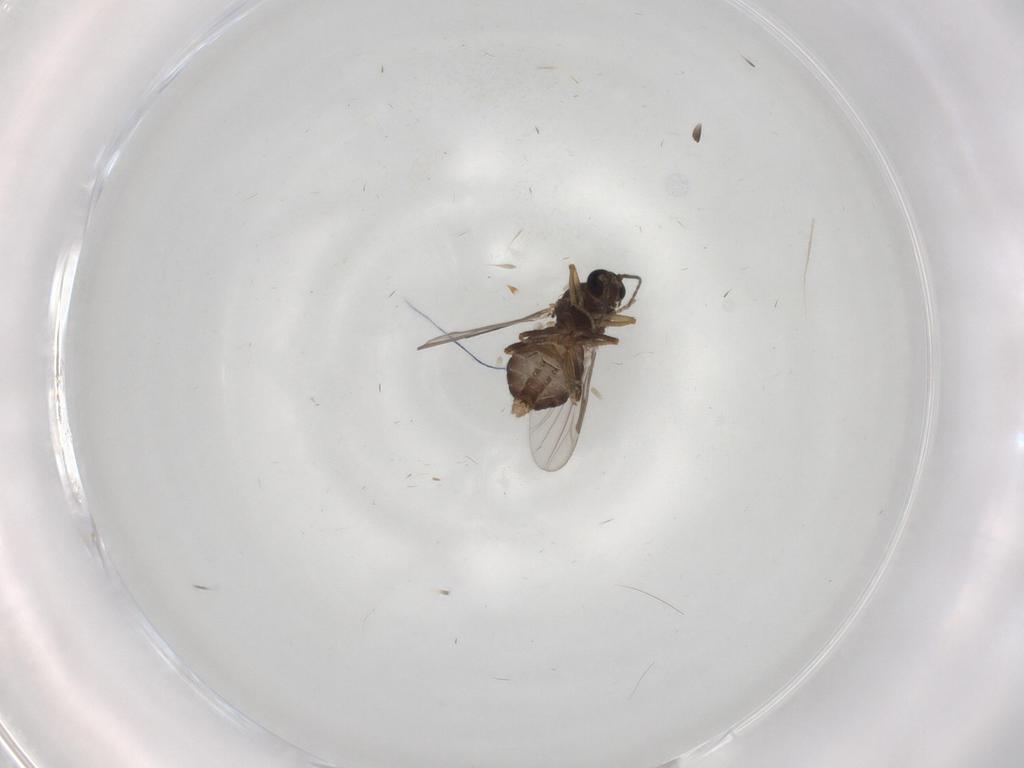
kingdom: Animalia
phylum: Arthropoda
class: Insecta
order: Diptera
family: Ceratopogonidae
